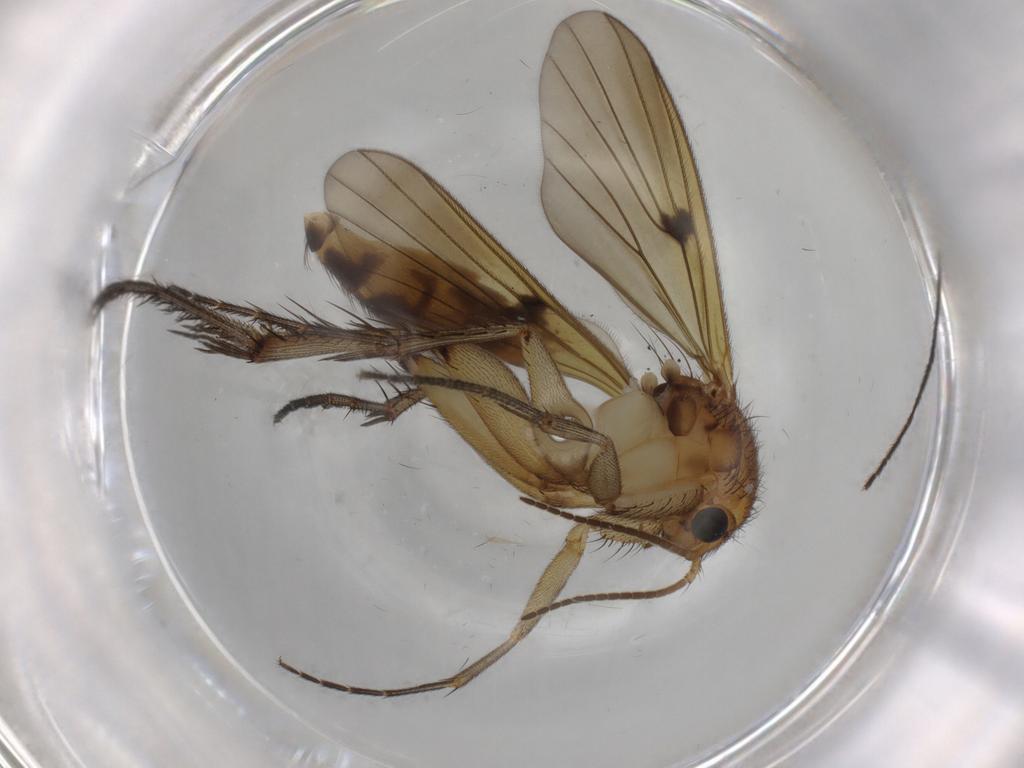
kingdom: Animalia
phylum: Arthropoda
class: Insecta
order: Diptera
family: Mycetophilidae
